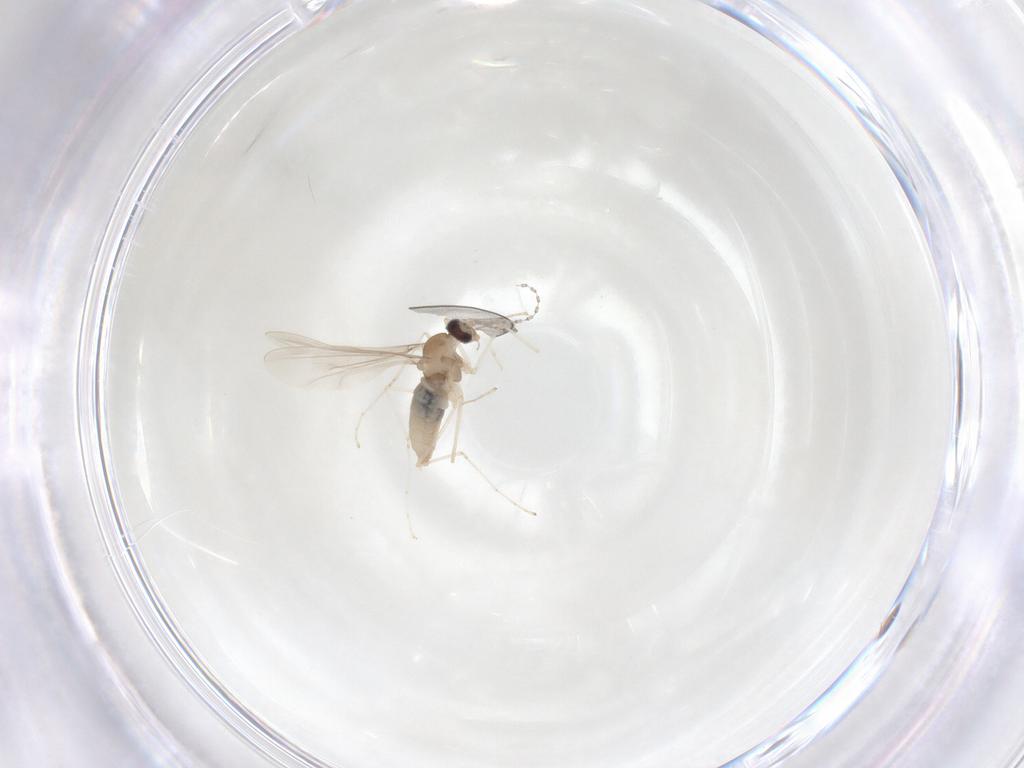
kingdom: Animalia
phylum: Arthropoda
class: Insecta
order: Diptera
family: Cecidomyiidae
